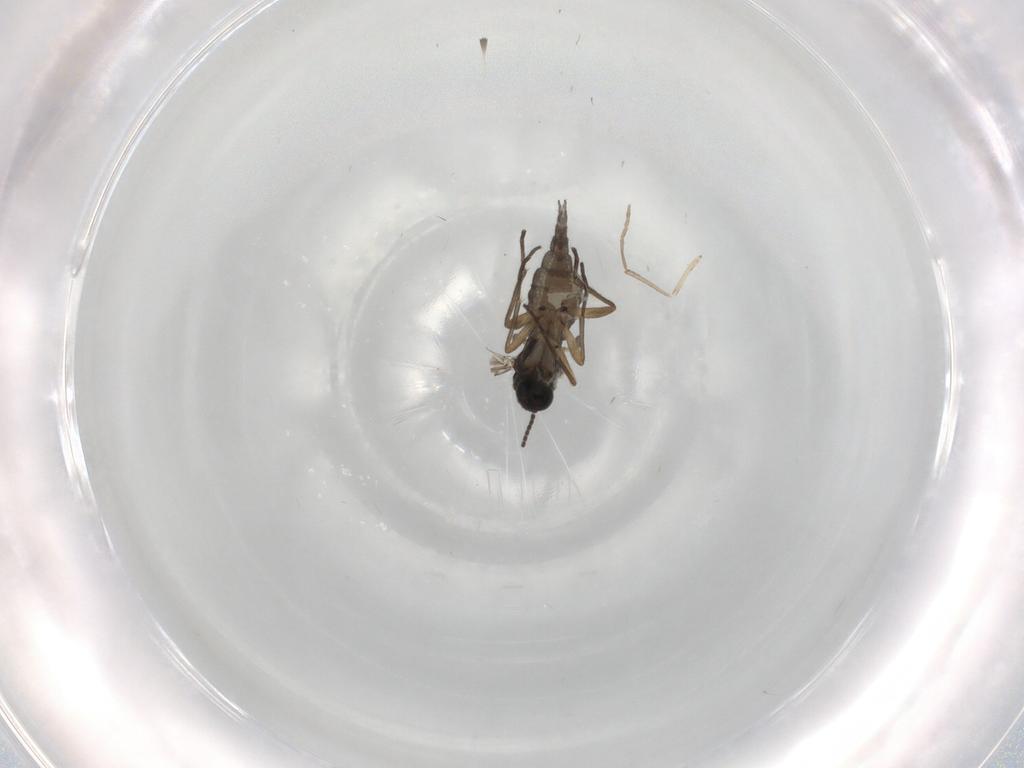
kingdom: Animalia
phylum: Arthropoda
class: Insecta
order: Diptera
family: Sciaridae
